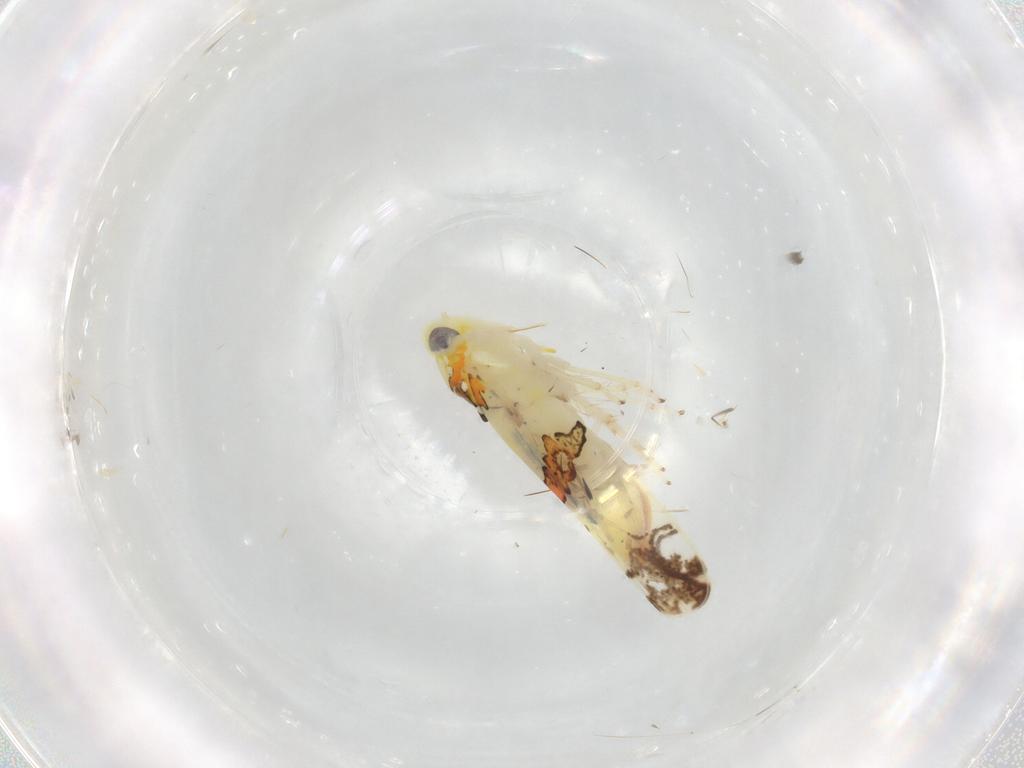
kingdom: Animalia
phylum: Arthropoda
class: Insecta
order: Hemiptera
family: Cicadellidae
